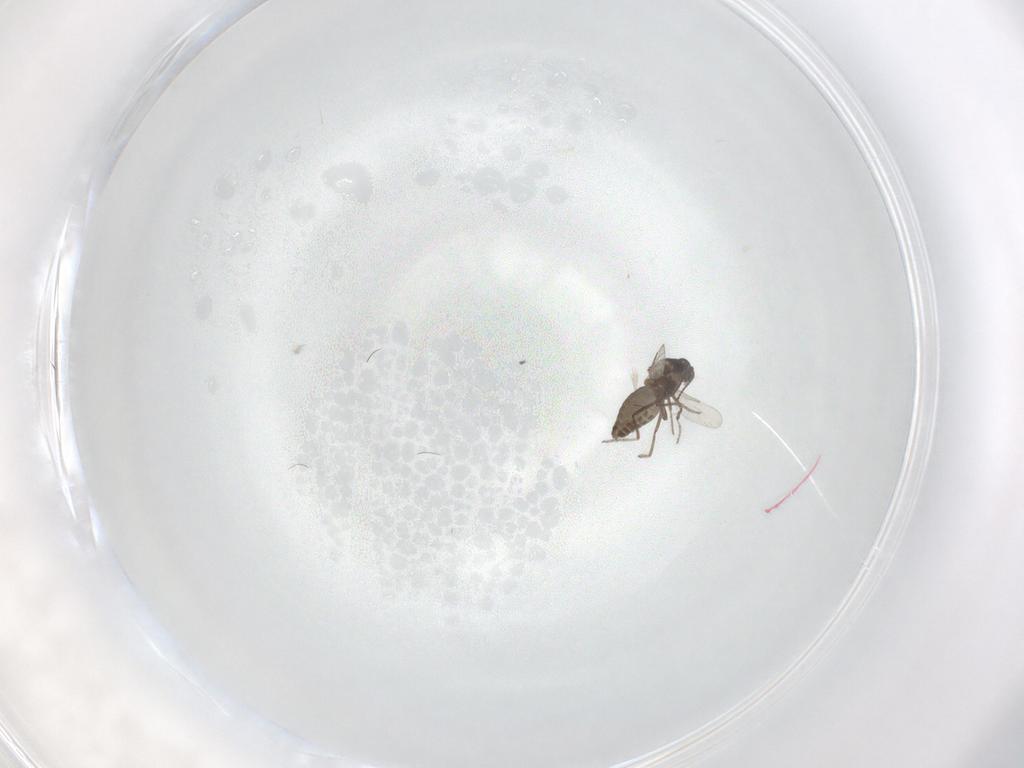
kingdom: Animalia
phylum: Arthropoda
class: Insecta
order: Diptera
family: Ceratopogonidae
